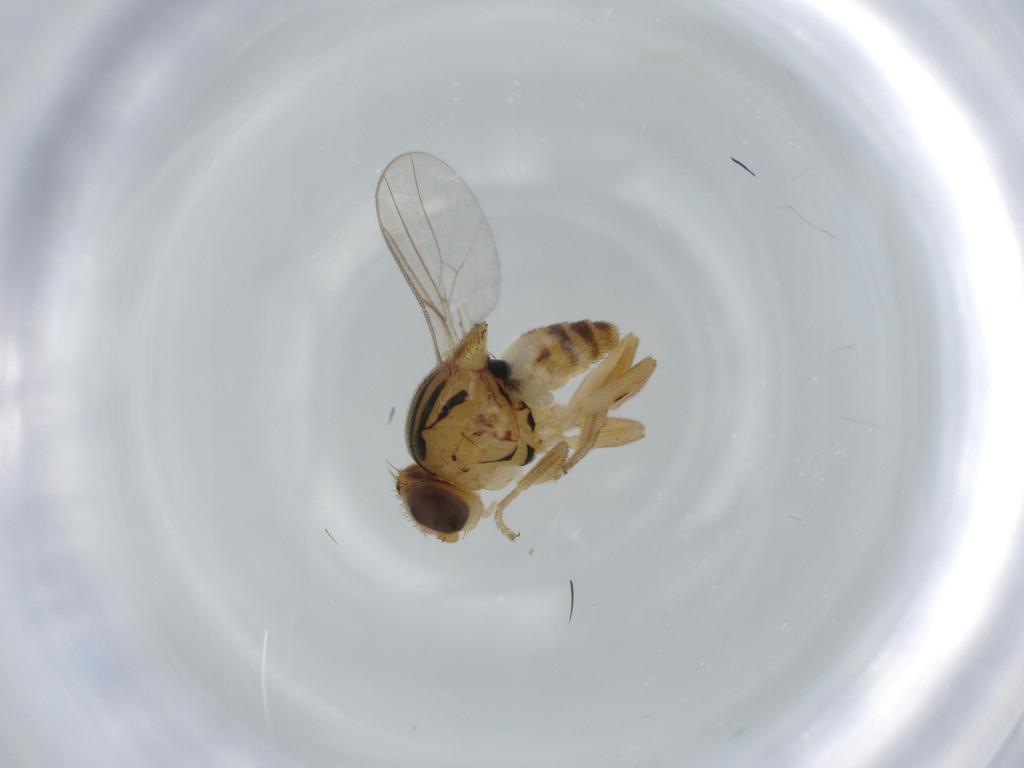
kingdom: Animalia
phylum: Arthropoda
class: Insecta
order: Diptera
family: Chloropidae
